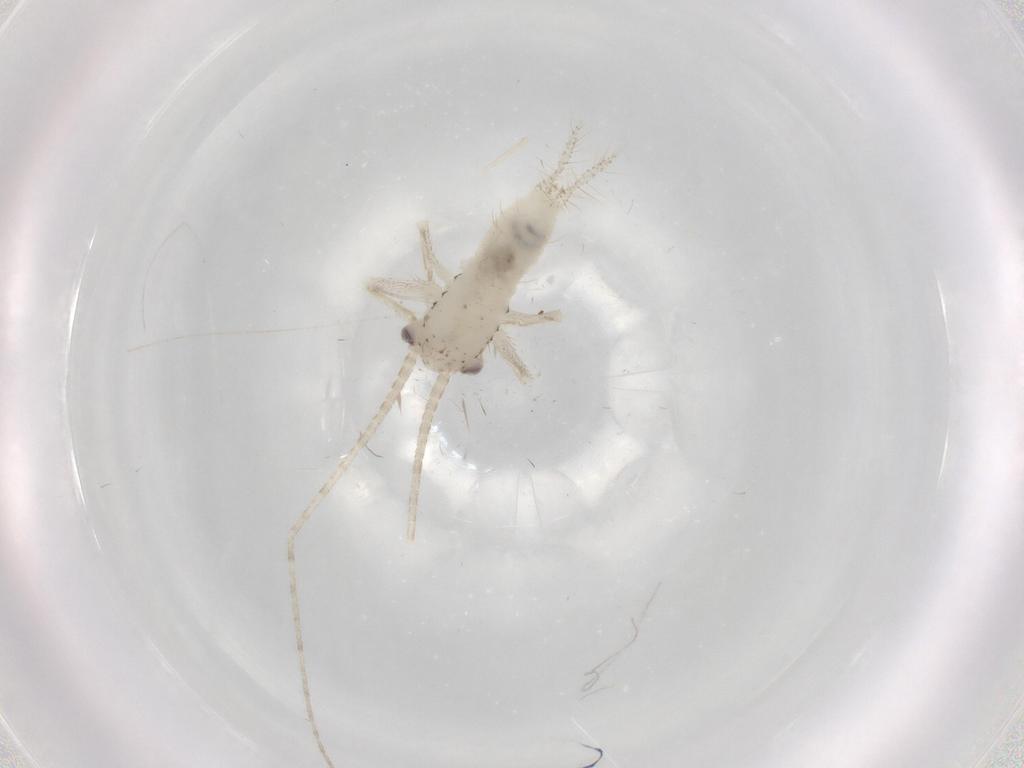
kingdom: Animalia
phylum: Arthropoda
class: Insecta
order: Orthoptera
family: Trigonidiidae
